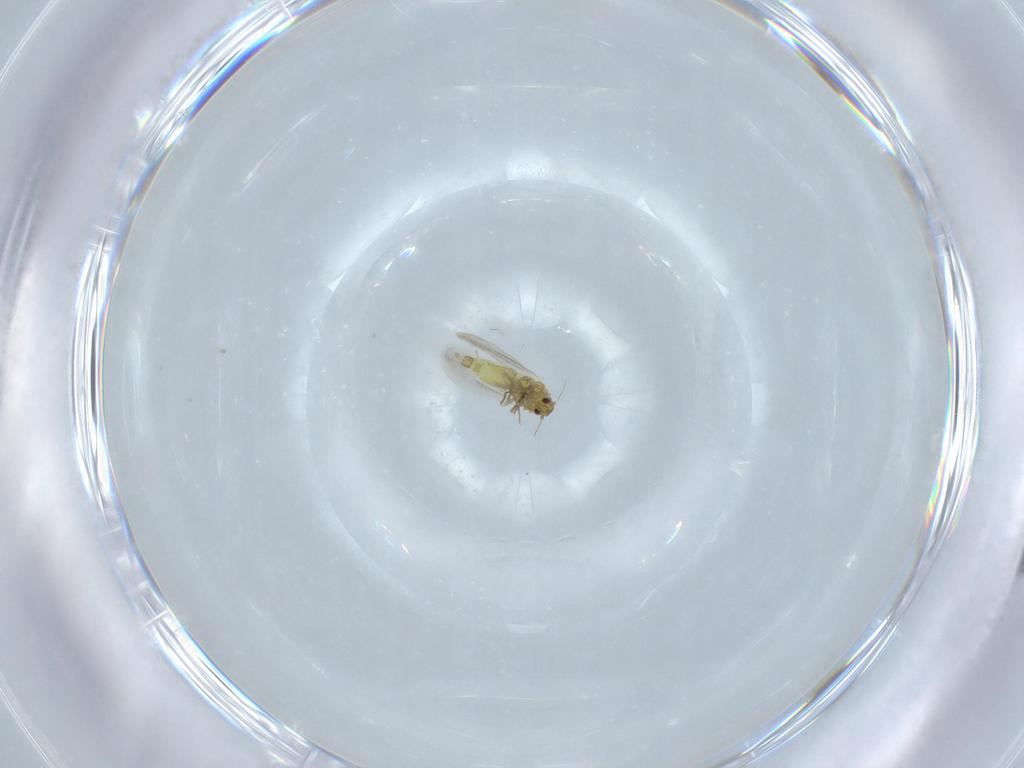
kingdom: Animalia
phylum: Arthropoda
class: Insecta
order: Hemiptera
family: Aleyrodidae
